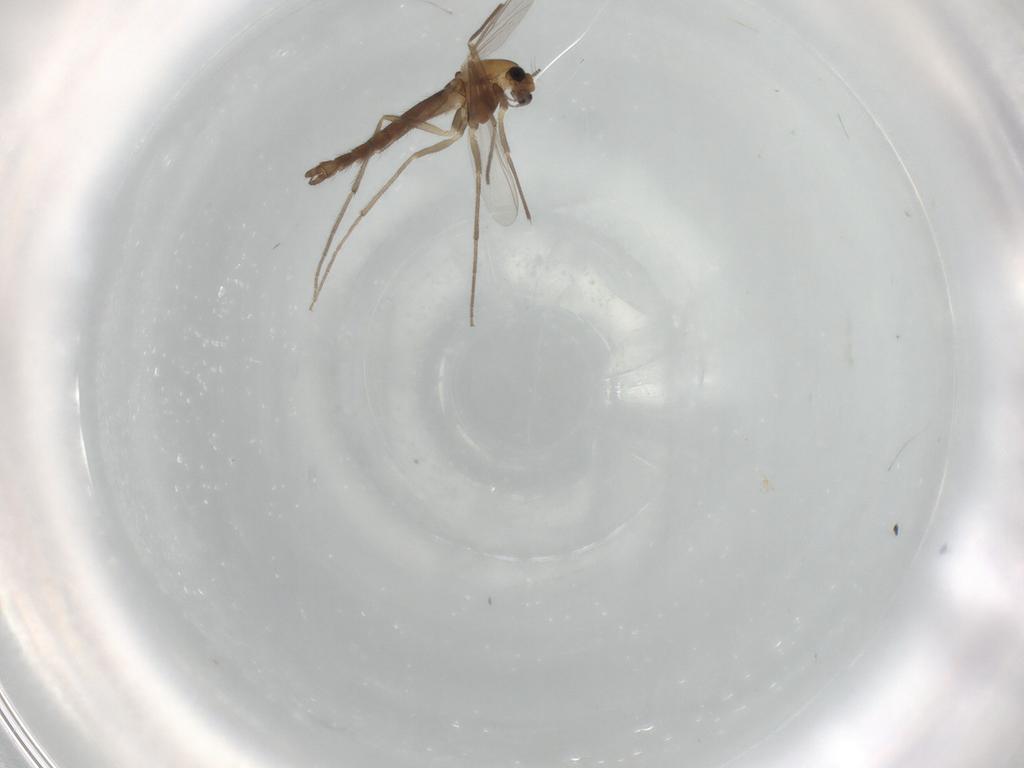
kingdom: Animalia
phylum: Arthropoda
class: Insecta
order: Diptera
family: Chironomidae
